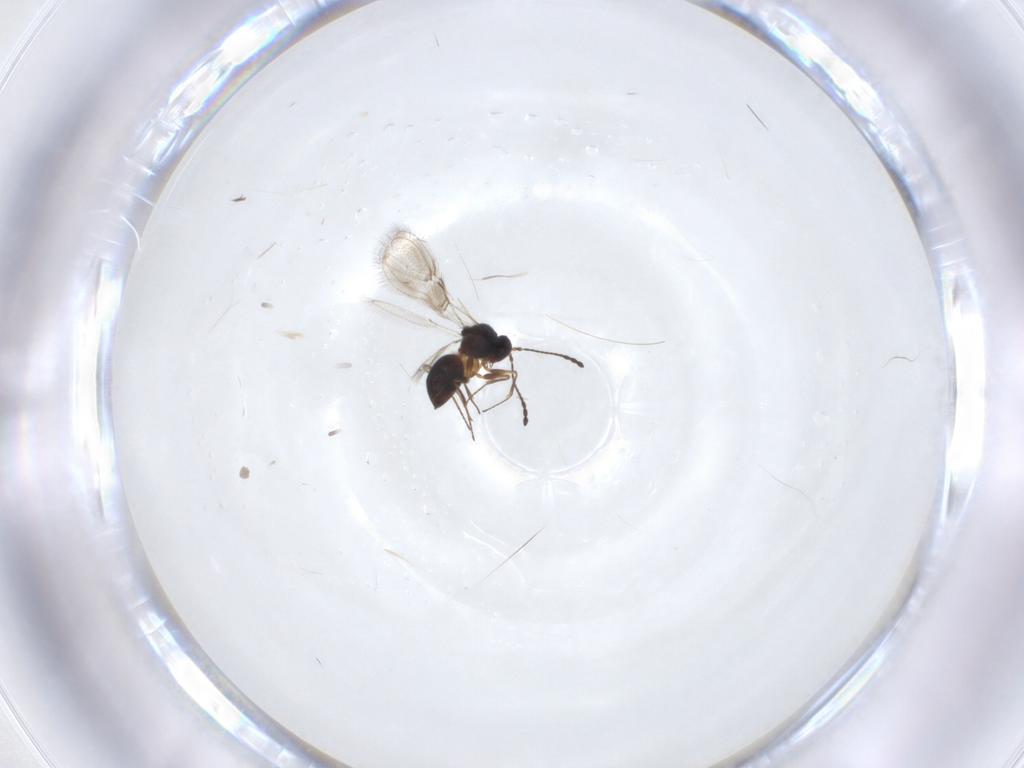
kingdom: Animalia
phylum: Arthropoda
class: Insecta
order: Hymenoptera
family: Figitidae
